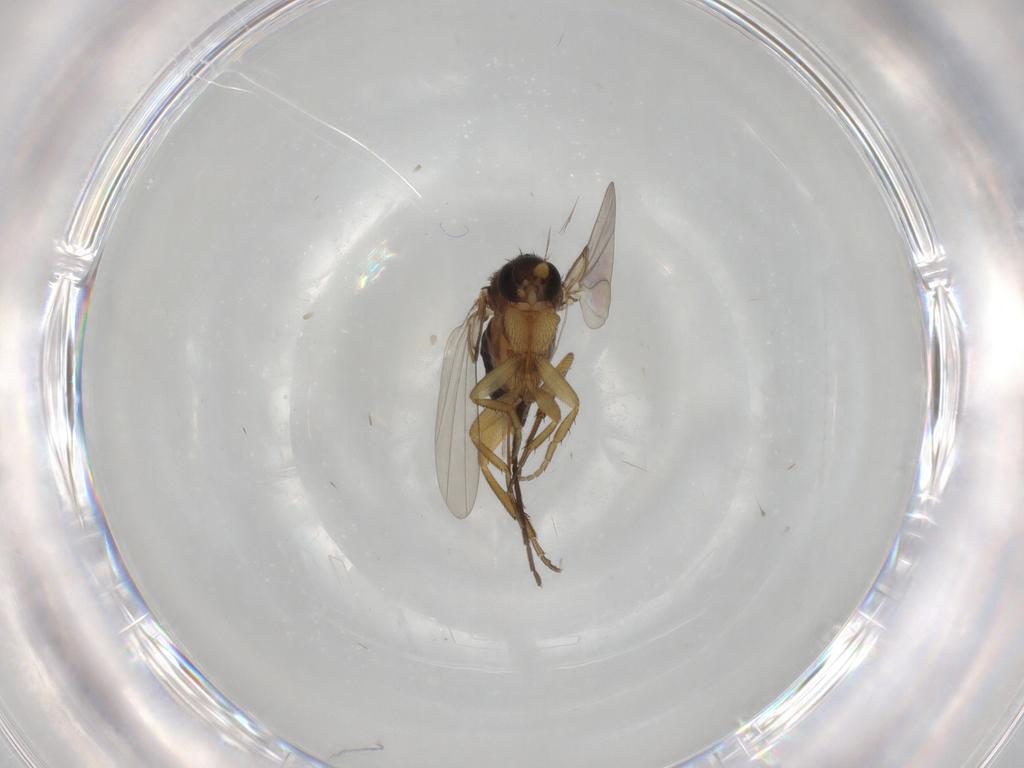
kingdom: Animalia
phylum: Arthropoda
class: Insecta
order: Diptera
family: Phoridae
